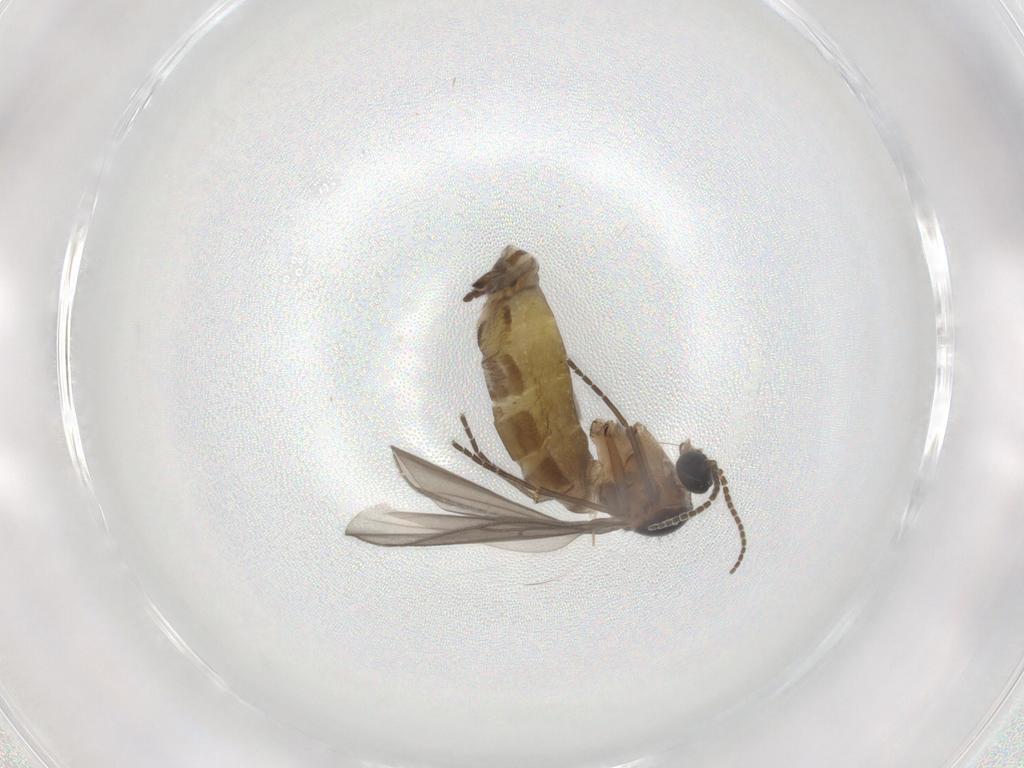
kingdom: Animalia
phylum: Arthropoda
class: Insecta
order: Diptera
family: Sciaridae
